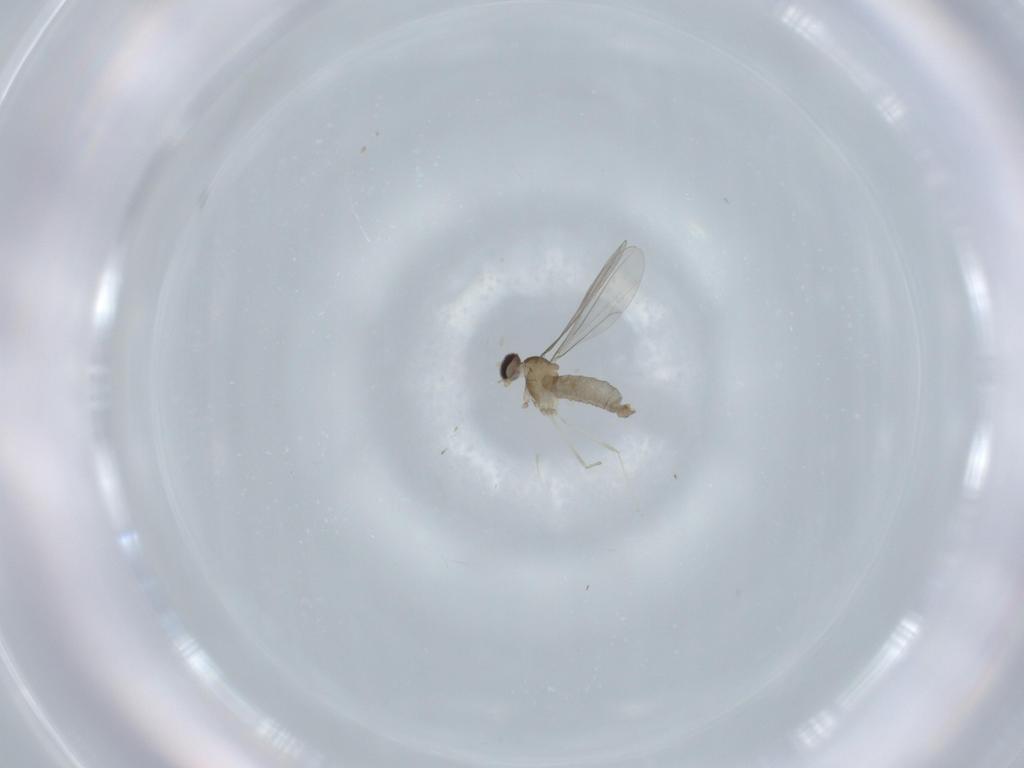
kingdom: Animalia
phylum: Arthropoda
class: Insecta
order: Diptera
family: Cecidomyiidae
